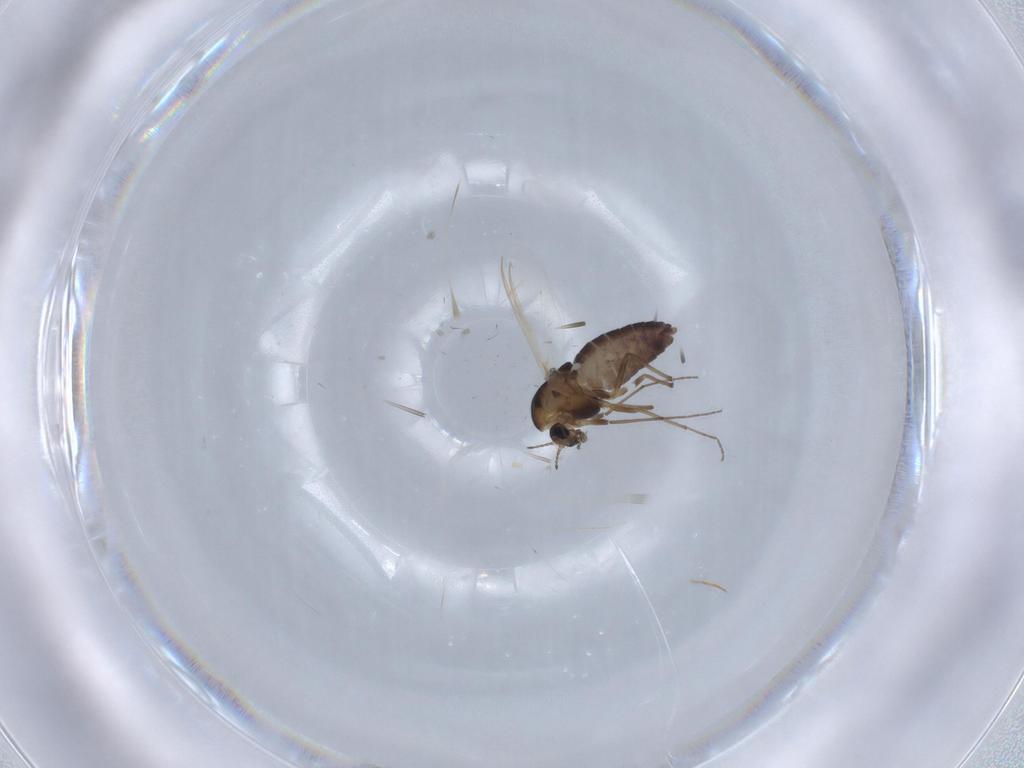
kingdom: Animalia
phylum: Arthropoda
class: Insecta
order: Diptera
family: Chironomidae
